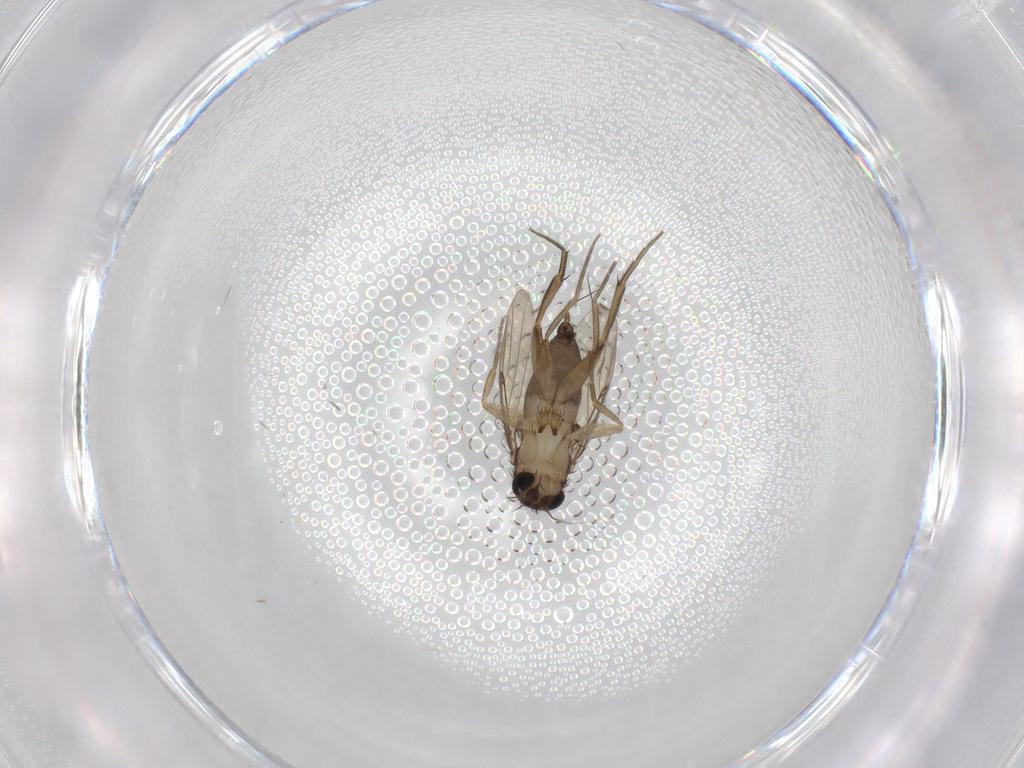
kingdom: Animalia
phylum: Arthropoda
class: Insecta
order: Diptera
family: Phoridae
